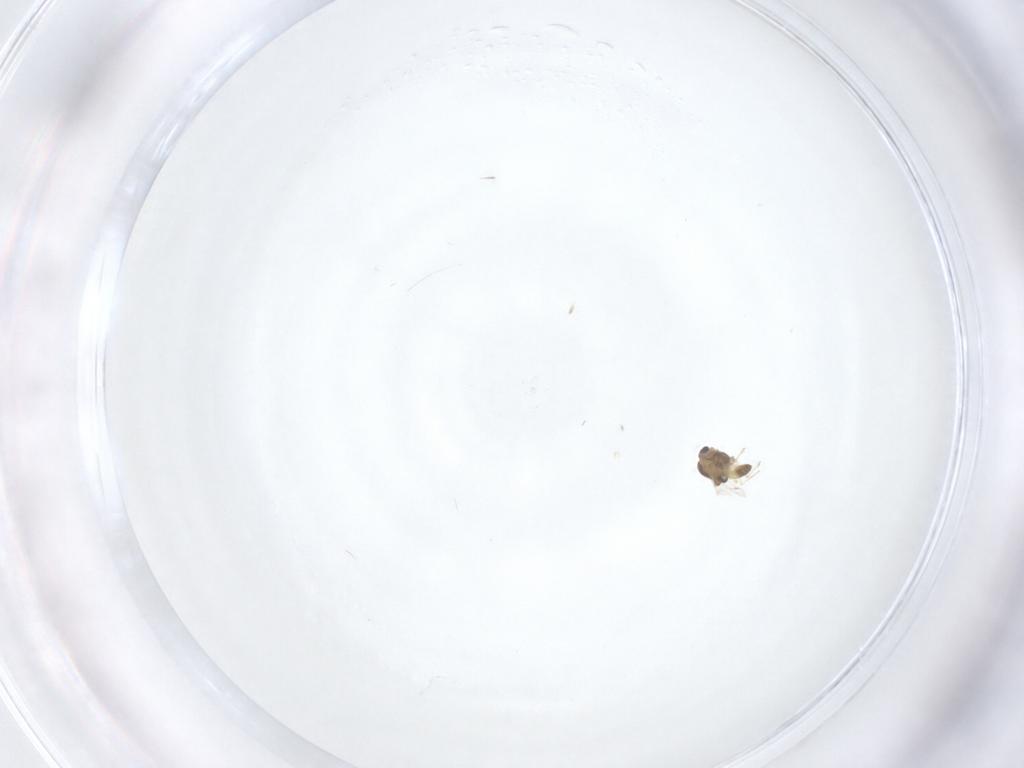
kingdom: Animalia
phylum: Arthropoda
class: Insecta
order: Diptera
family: Chironomidae
